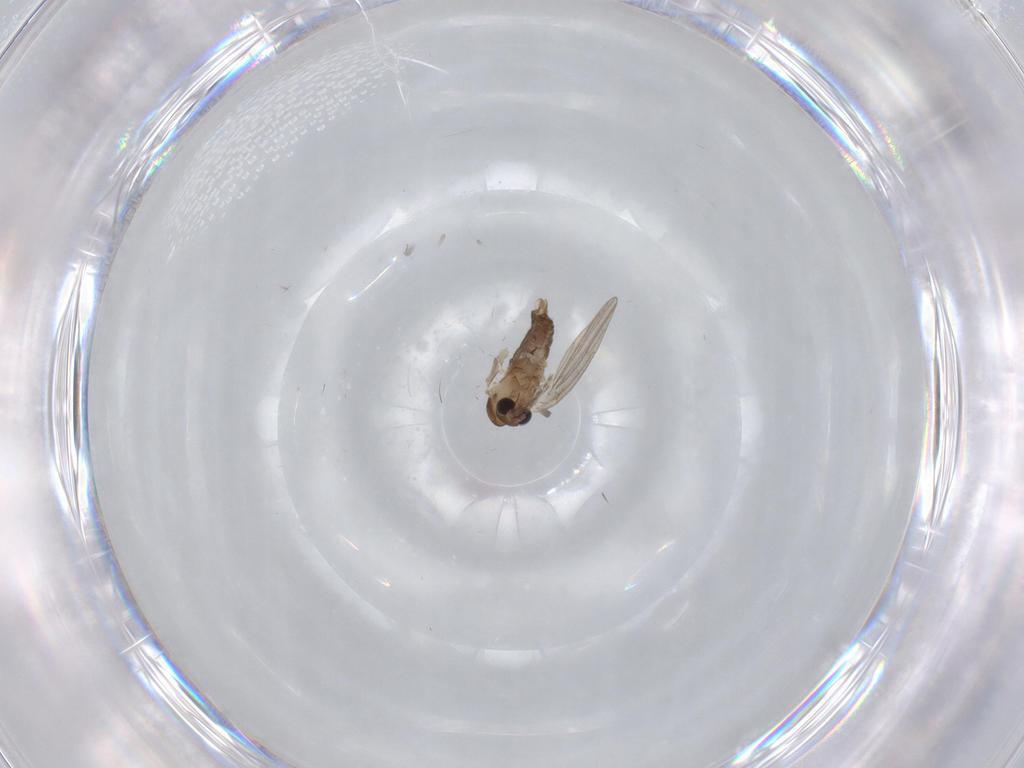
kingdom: Animalia
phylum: Arthropoda
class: Insecta
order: Diptera
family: Cecidomyiidae
